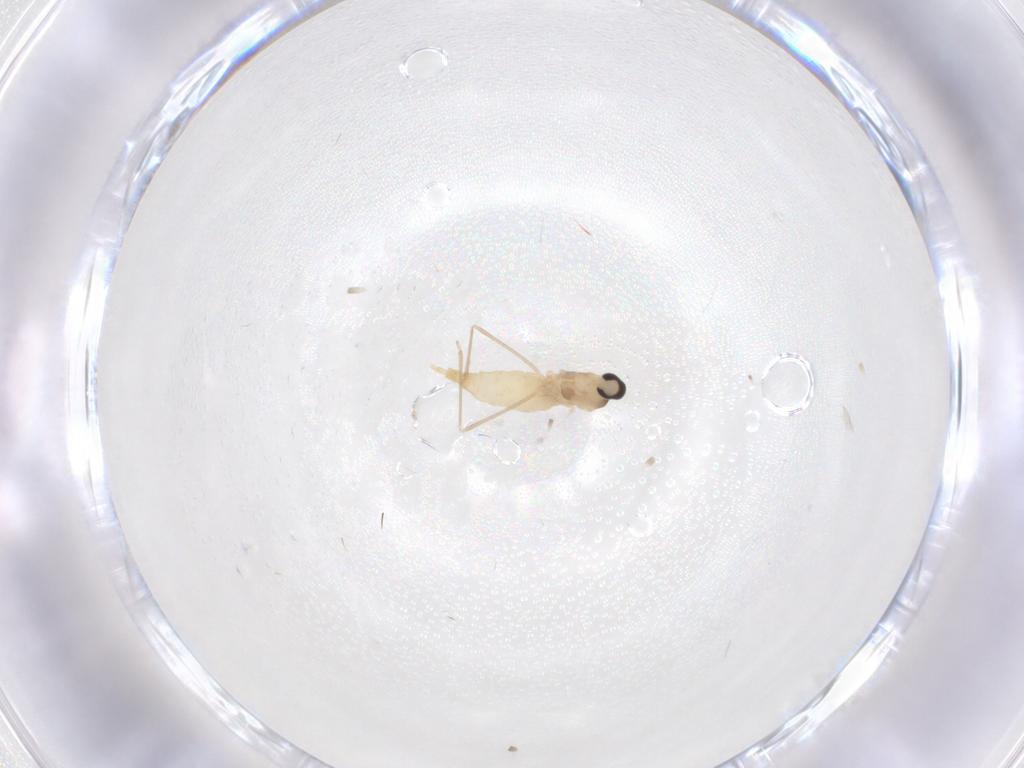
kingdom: Animalia
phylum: Arthropoda
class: Insecta
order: Diptera
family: Cecidomyiidae
